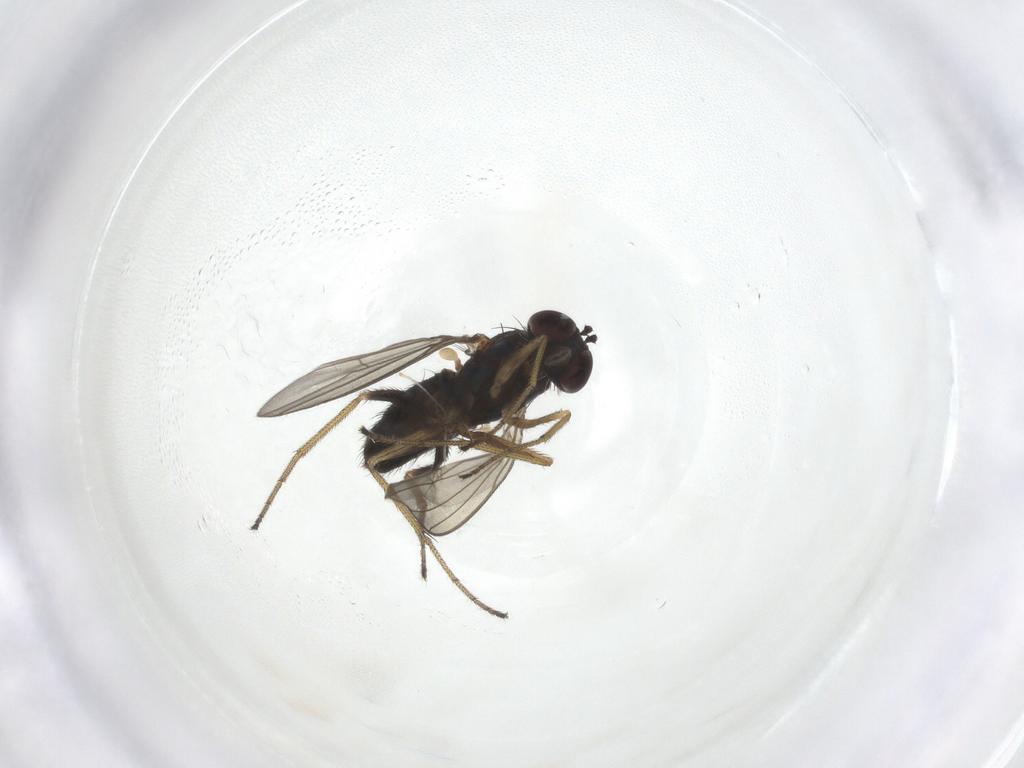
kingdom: Animalia
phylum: Arthropoda
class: Insecta
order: Diptera
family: Dolichopodidae
